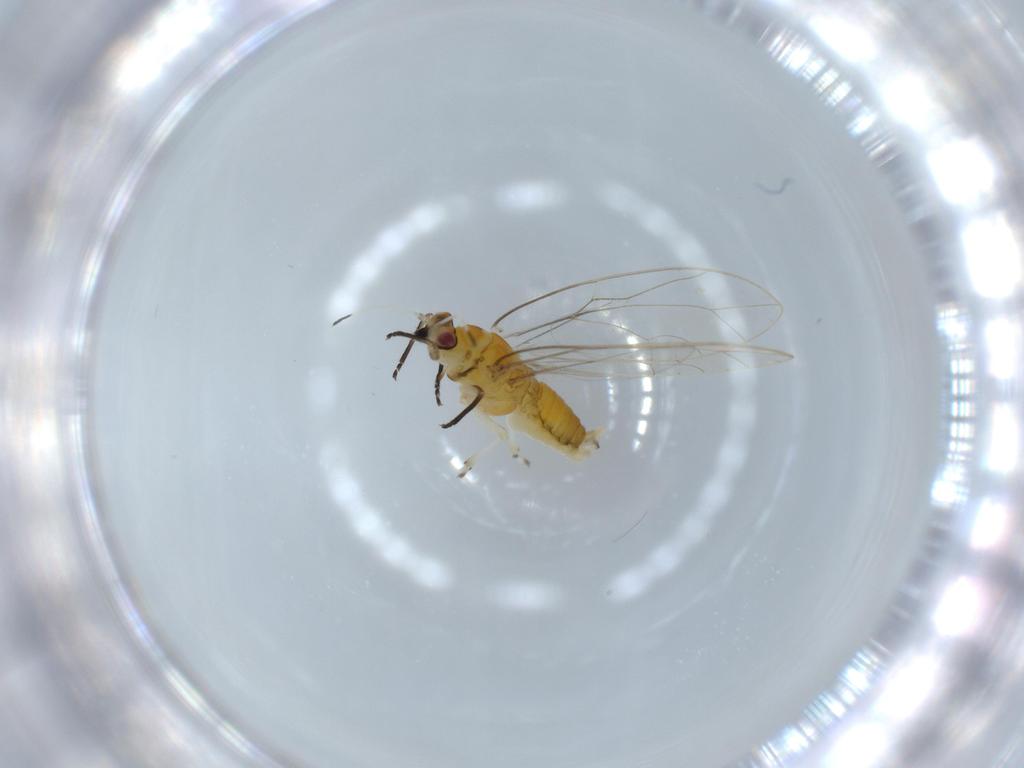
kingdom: Animalia
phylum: Arthropoda
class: Insecta
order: Hemiptera
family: Triozidae
